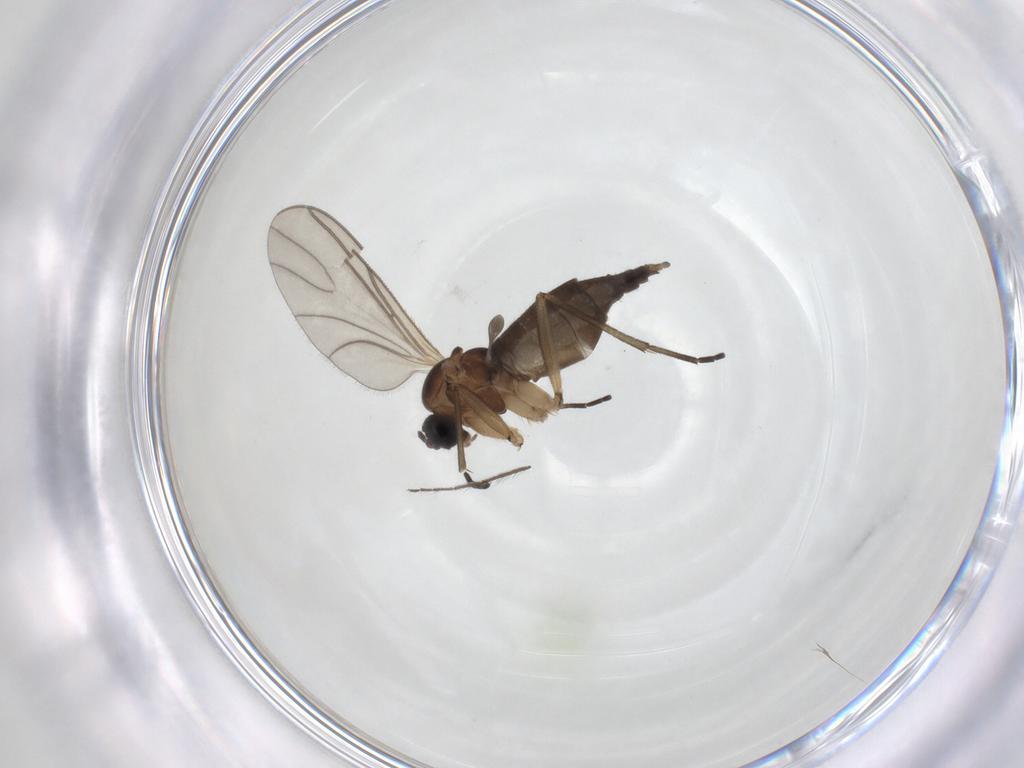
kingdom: Animalia
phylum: Arthropoda
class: Insecta
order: Diptera
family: Sciaridae
